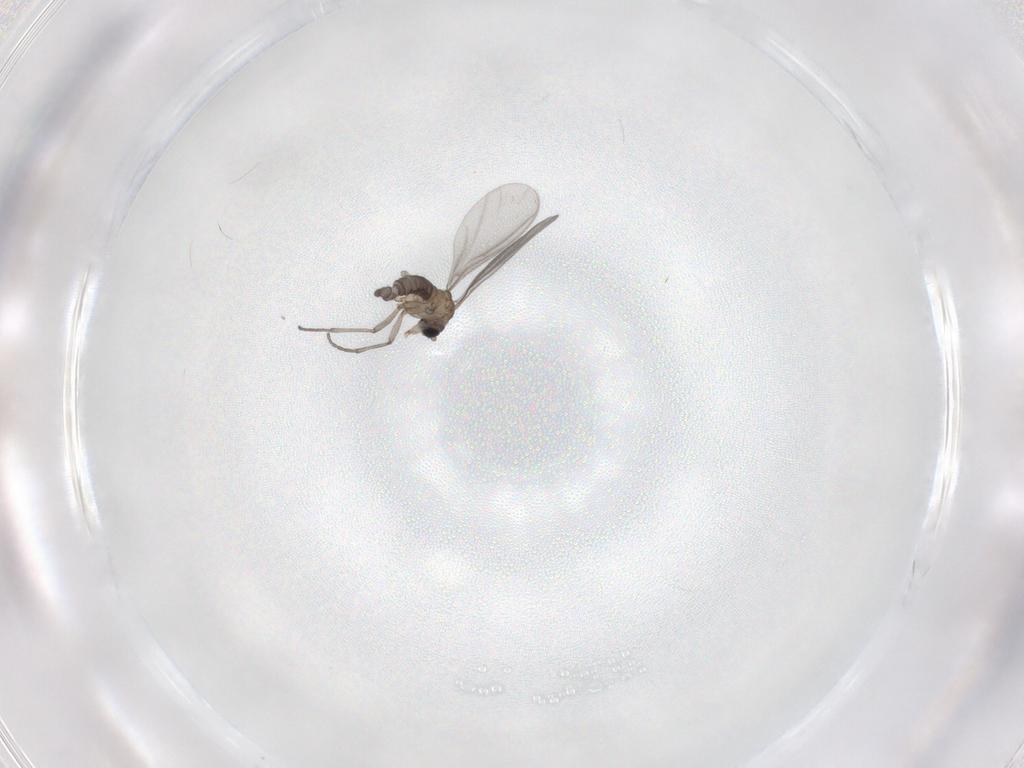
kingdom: Animalia
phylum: Arthropoda
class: Insecta
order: Diptera
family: Sciaridae
